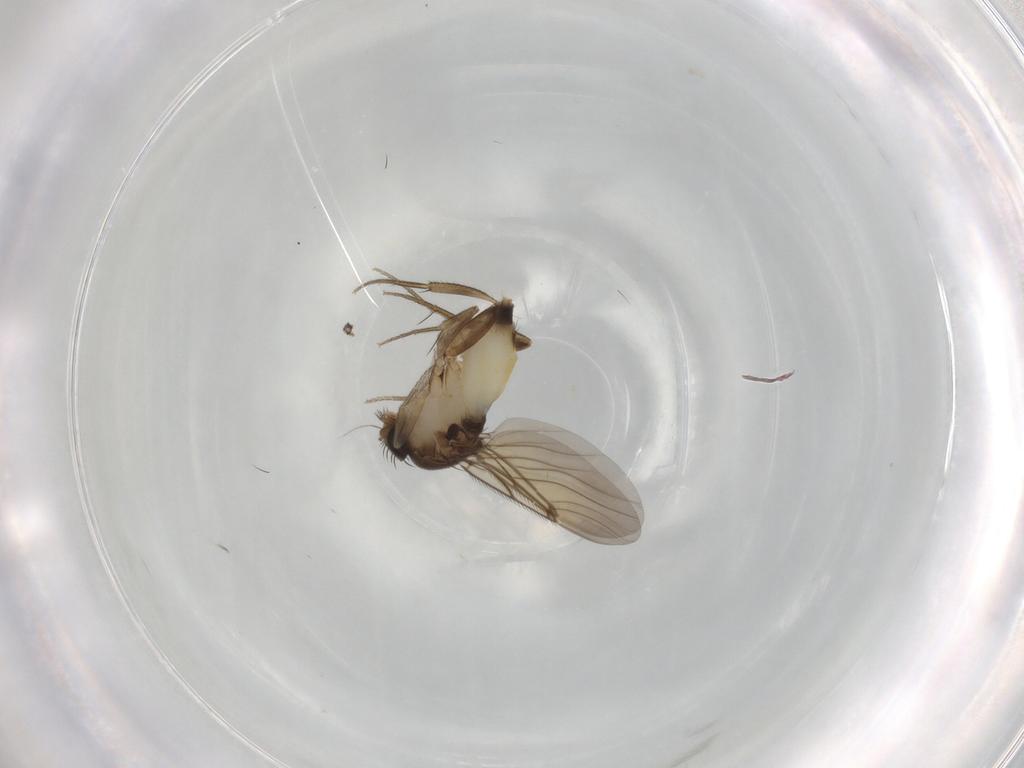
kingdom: Animalia
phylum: Arthropoda
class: Insecta
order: Diptera
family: Phoridae
